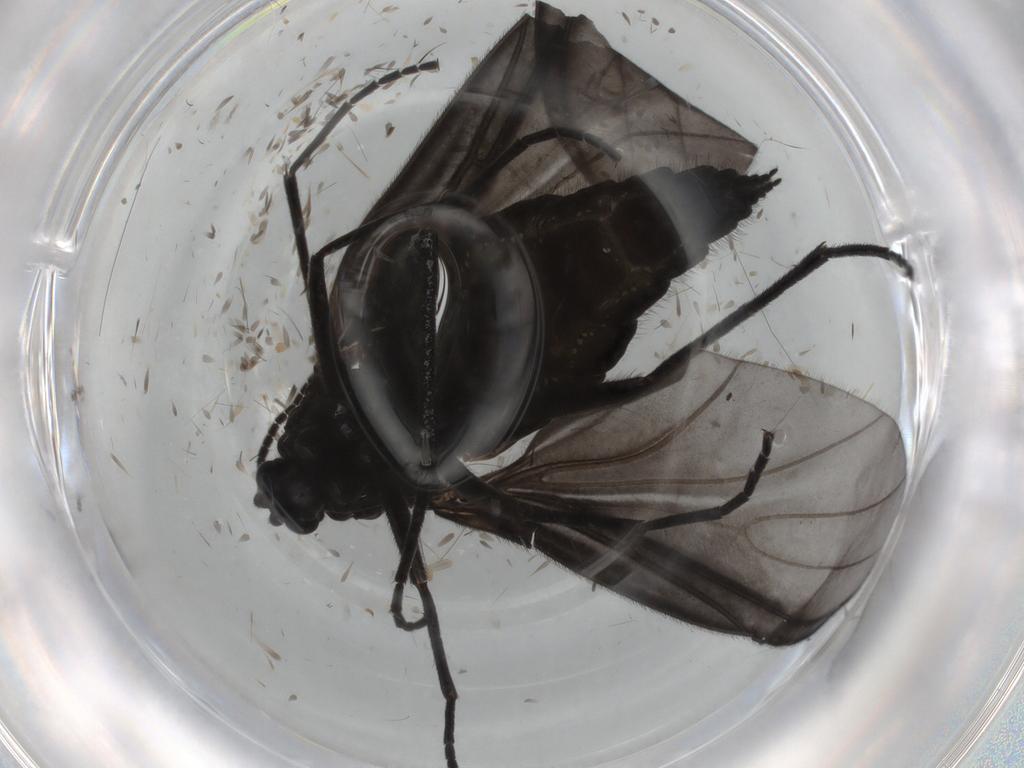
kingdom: Animalia
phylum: Arthropoda
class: Insecta
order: Diptera
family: Tachinidae
